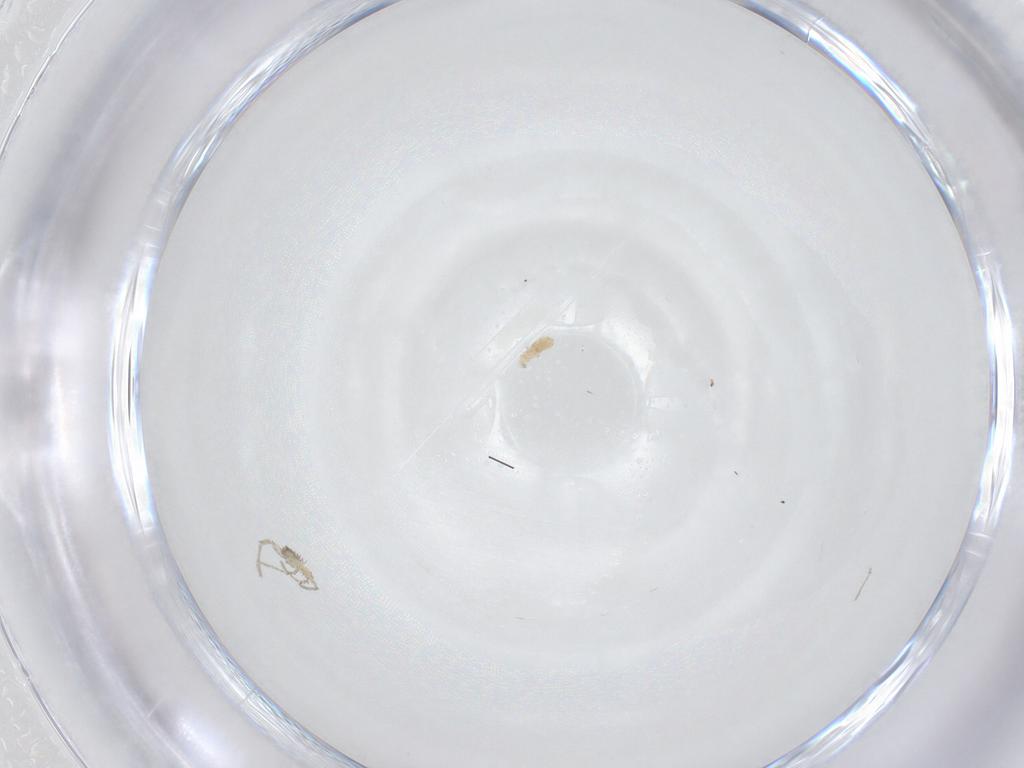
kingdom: Animalia
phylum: Arthropoda
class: Arachnida
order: Trombidiformes
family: Erythraeidae
